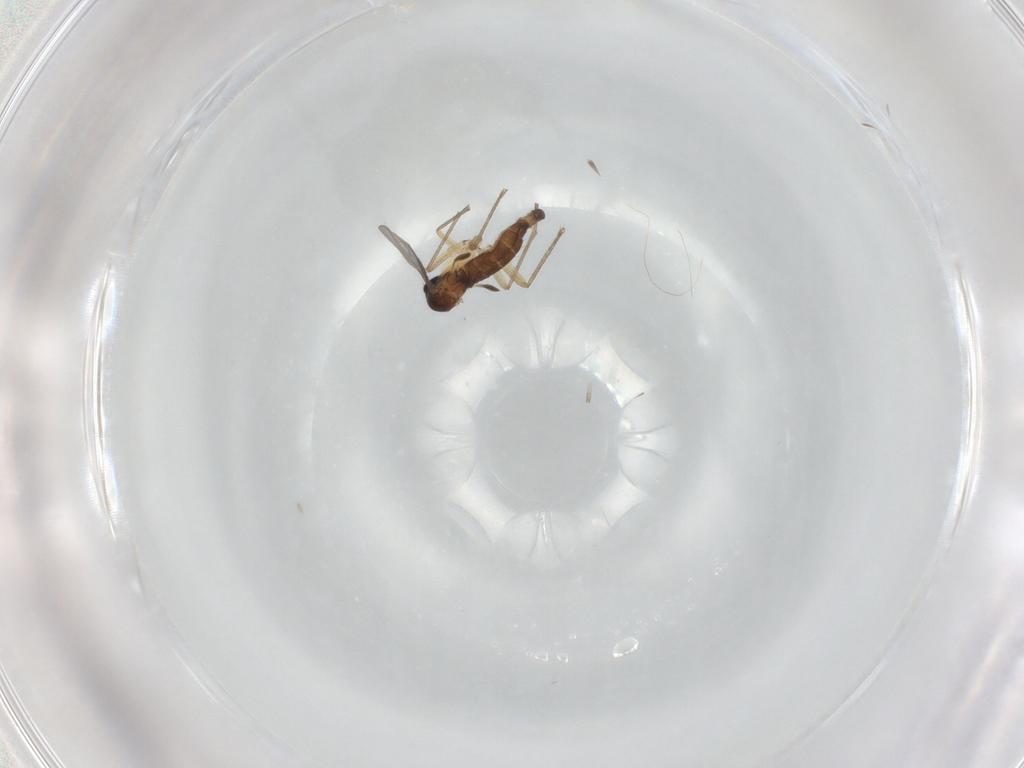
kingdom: Animalia
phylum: Arthropoda
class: Insecta
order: Diptera
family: Sciaridae
